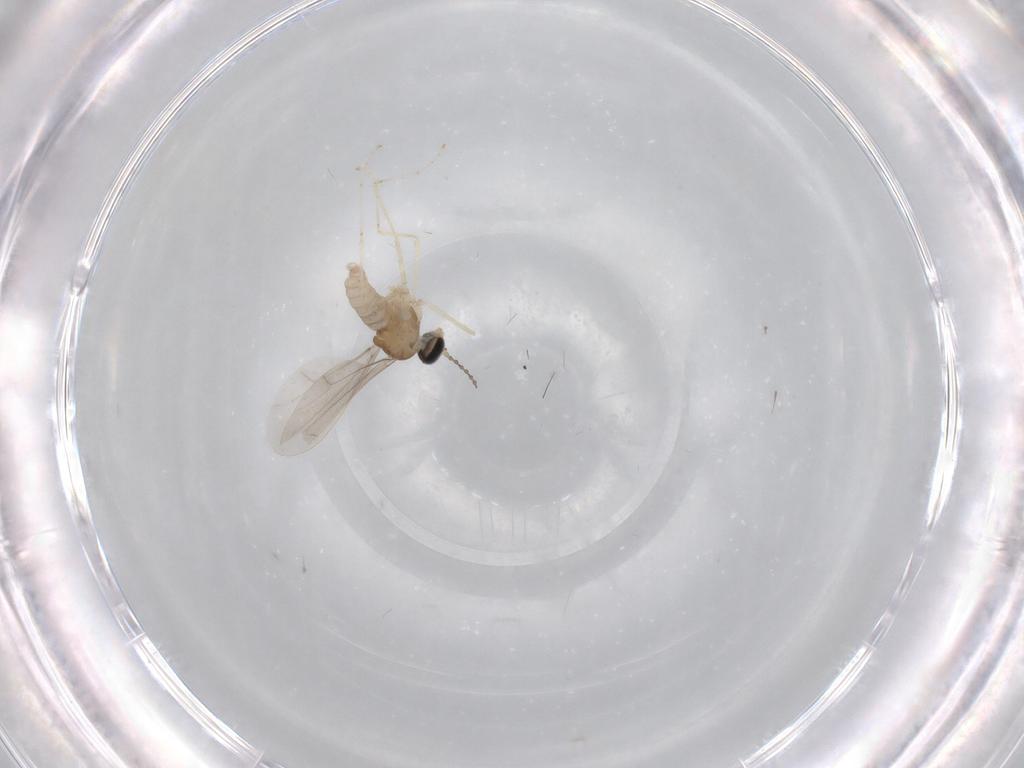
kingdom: Animalia
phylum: Arthropoda
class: Insecta
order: Diptera
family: Cecidomyiidae
